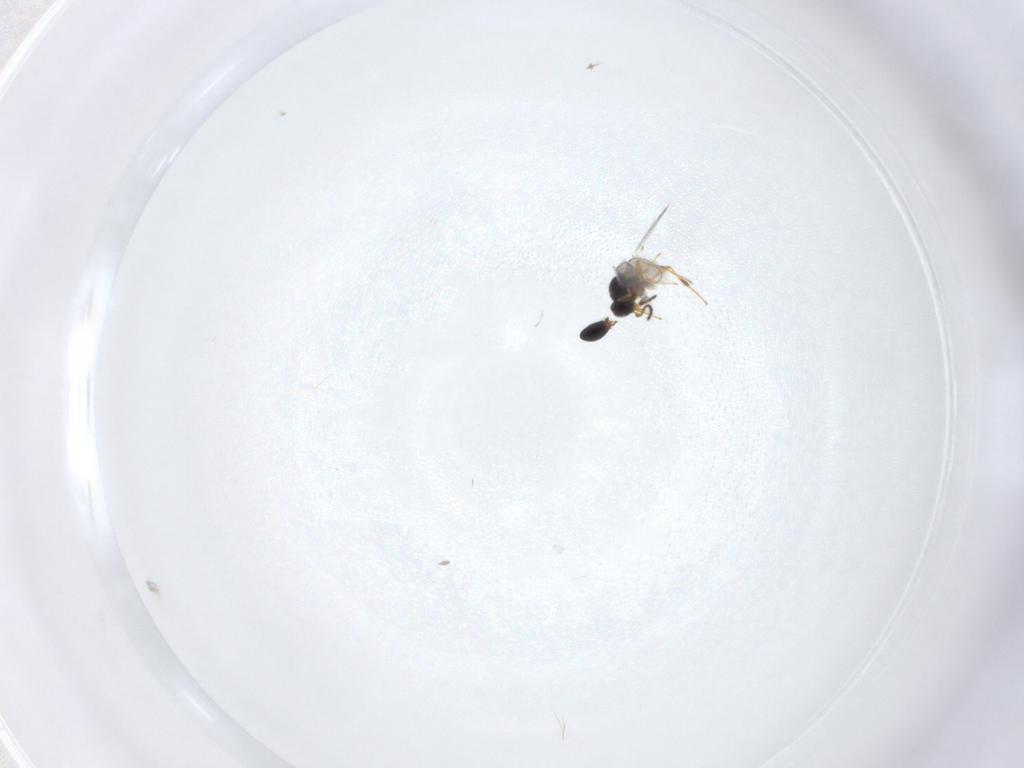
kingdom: Animalia
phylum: Arthropoda
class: Insecta
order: Hymenoptera
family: Platygastridae
